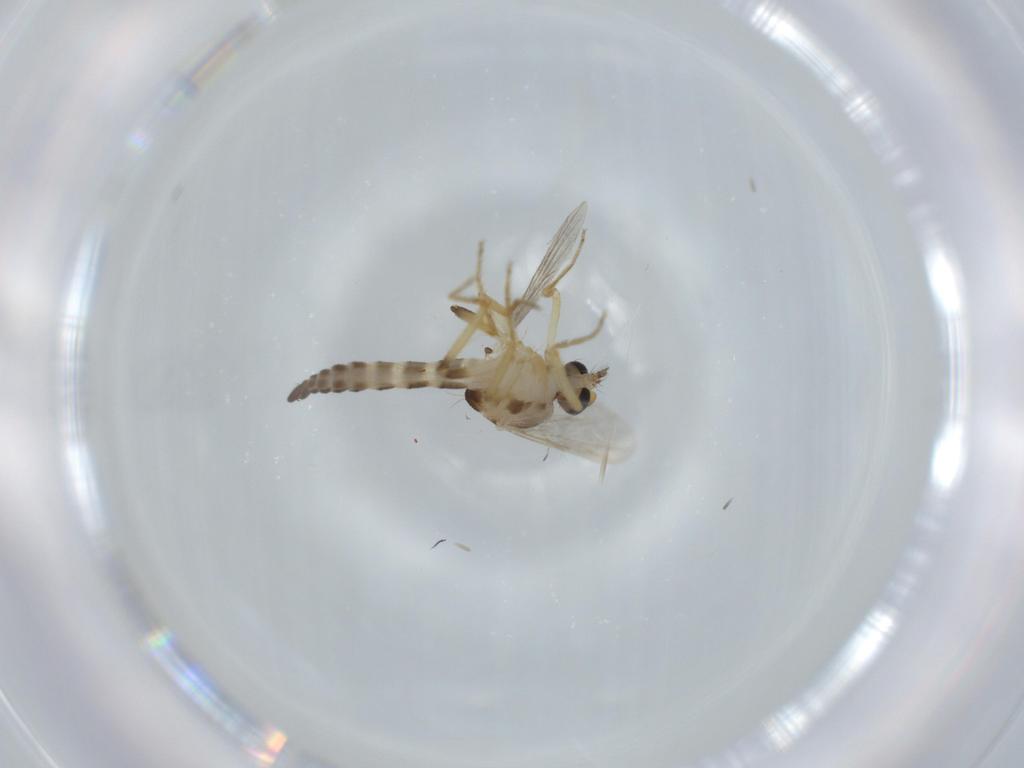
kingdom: Animalia
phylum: Arthropoda
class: Insecta
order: Diptera
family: Ceratopogonidae
